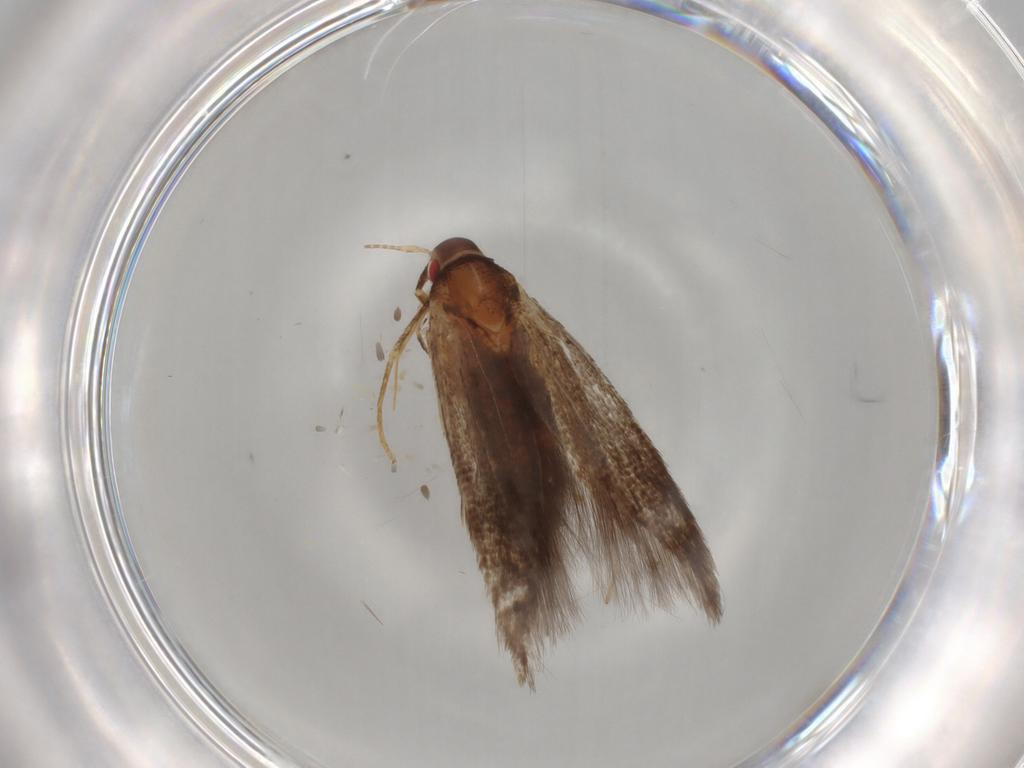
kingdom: Animalia
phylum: Arthropoda
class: Insecta
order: Lepidoptera
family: Cosmopterigidae
